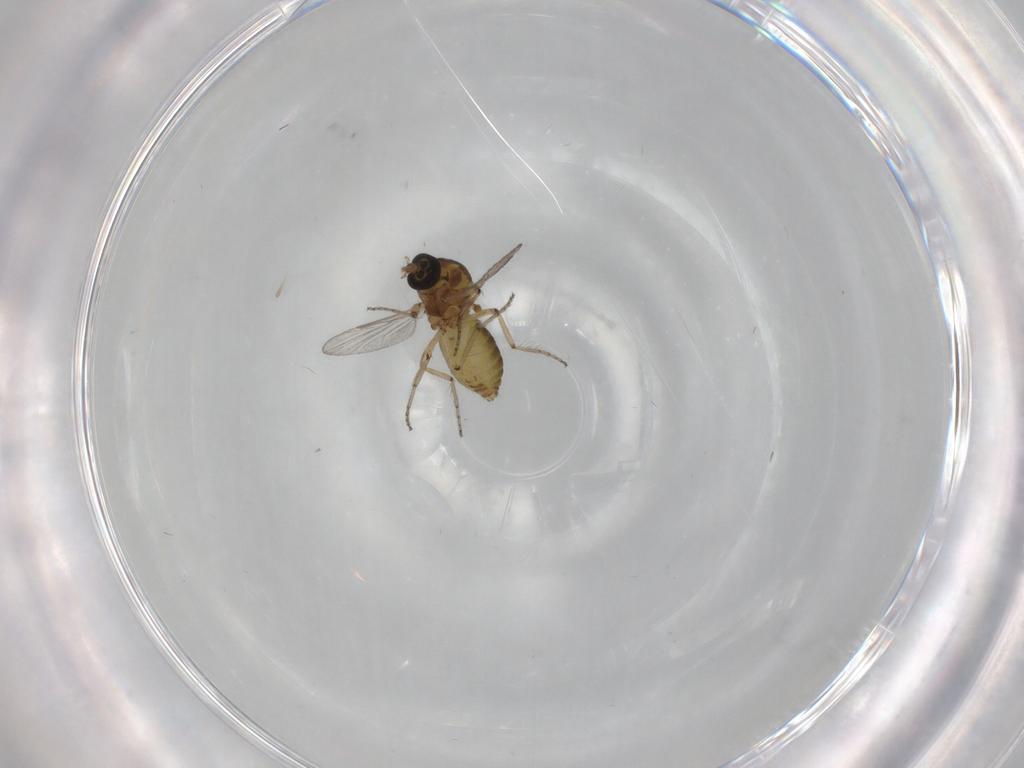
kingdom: Animalia
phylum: Arthropoda
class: Insecta
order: Diptera
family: Ceratopogonidae
